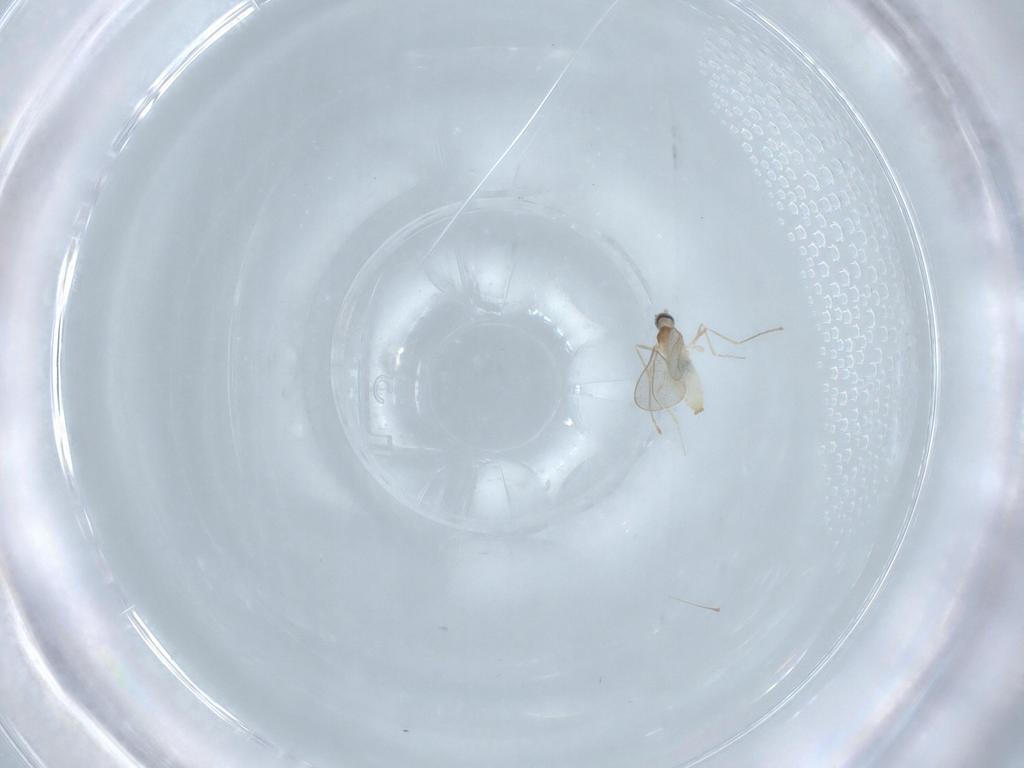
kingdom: Animalia
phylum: Arthropoda
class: Insecta
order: Diptera
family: Cecidomyiidae
